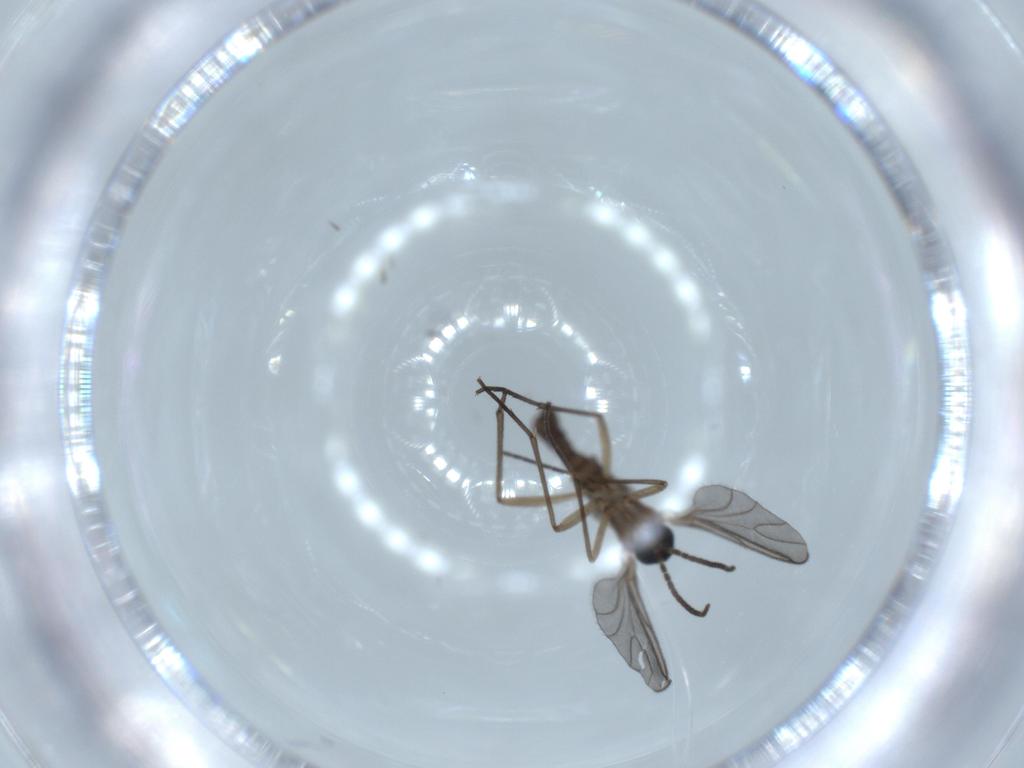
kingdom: Animalia
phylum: Arthropoda
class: Insecta
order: Diptera
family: Sciaridae
